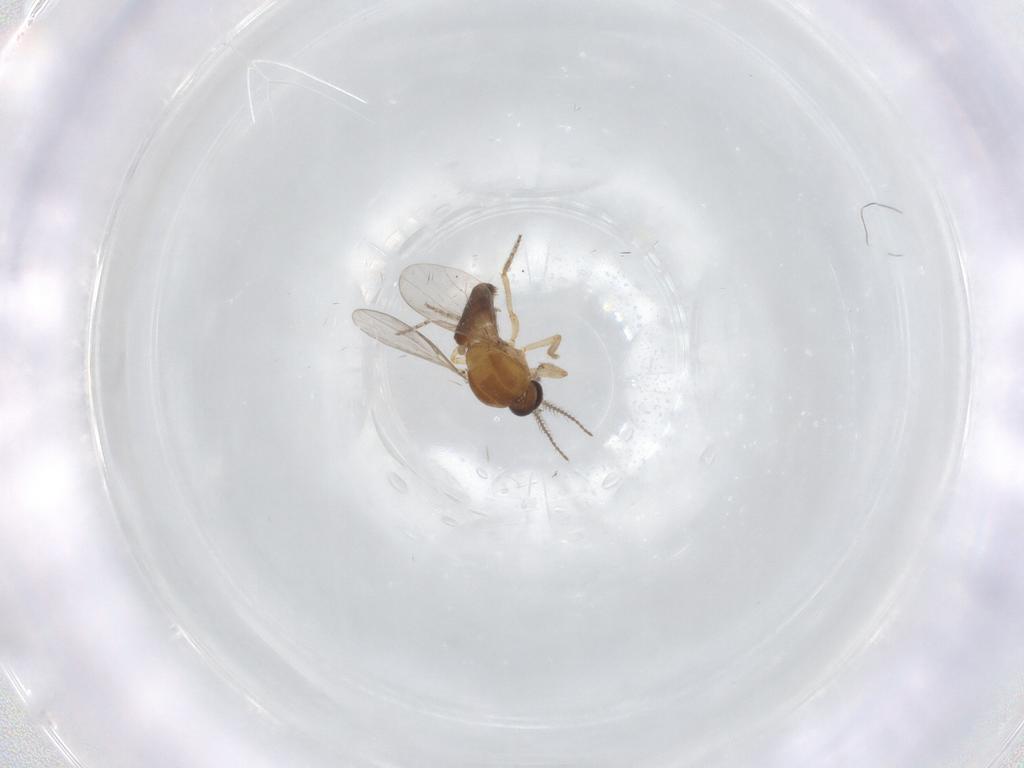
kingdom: Animalia
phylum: Arthropoda
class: Insecta
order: Diptera
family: Ceratopogonidae
